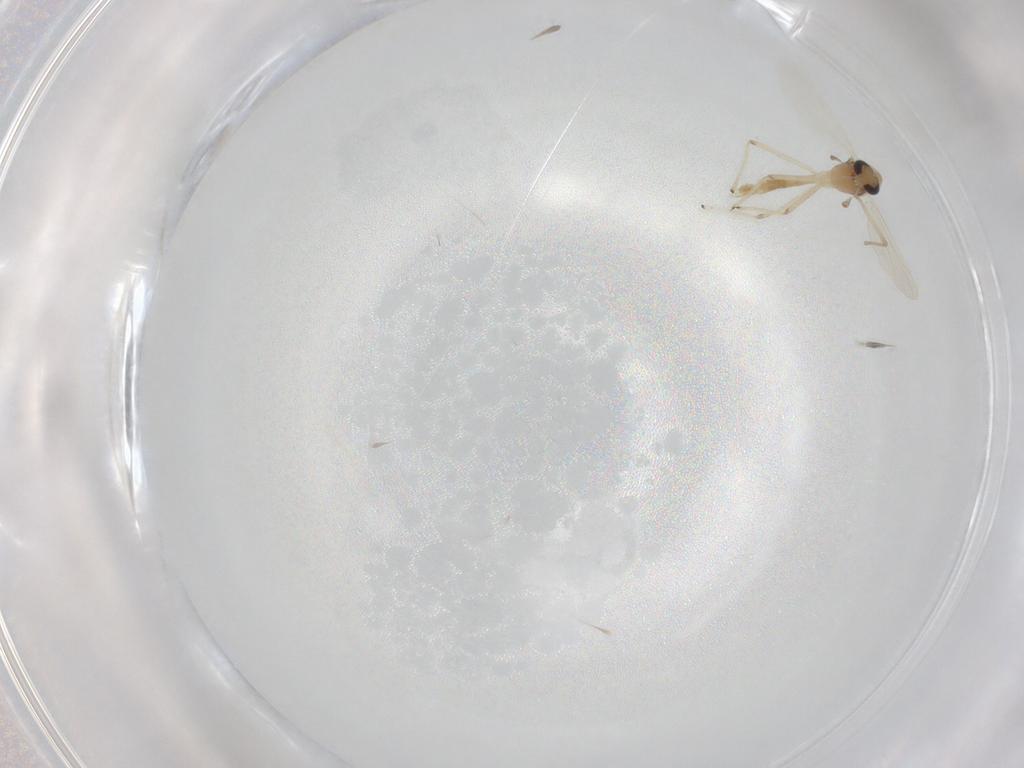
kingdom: Animalia
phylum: Arthropoda
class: Insecta
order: Diptera
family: Chironomidae
